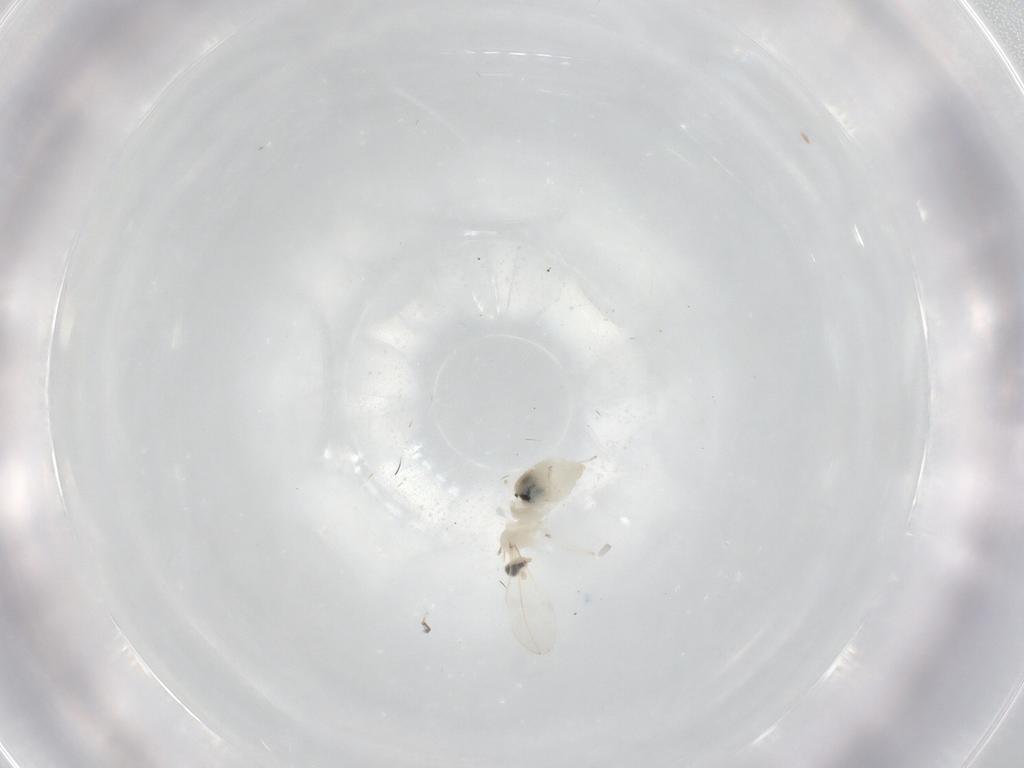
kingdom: Animalia
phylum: Arthropoda
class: Insecta
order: Diptera
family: Cecidomyiidae
